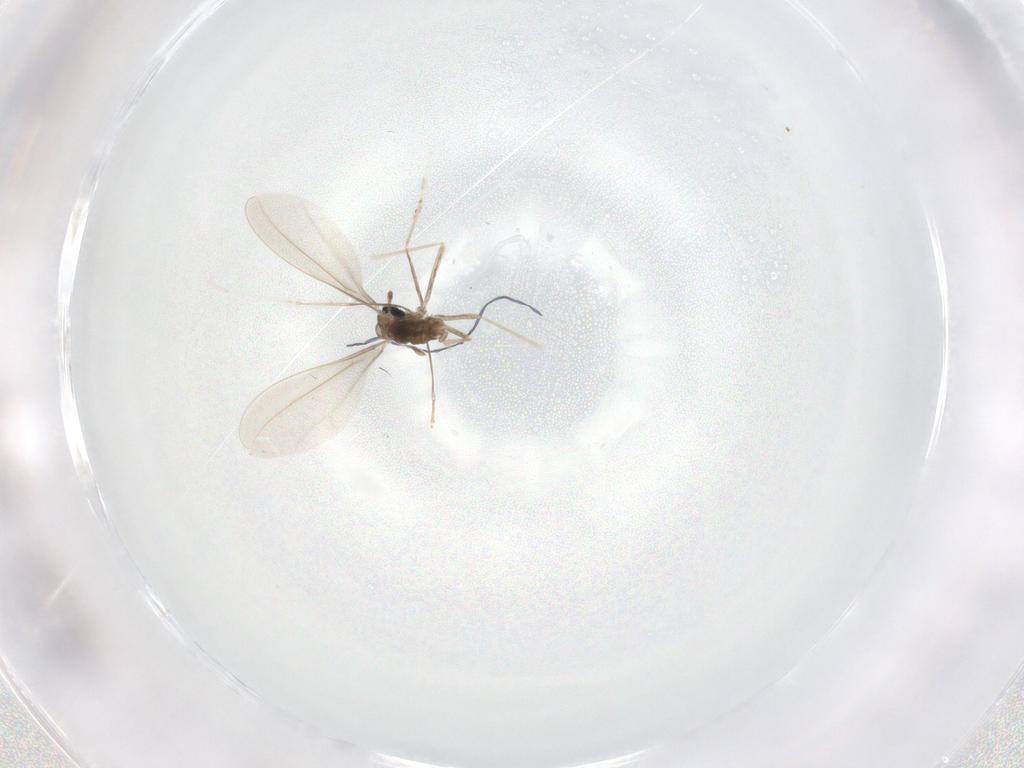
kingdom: Animalia
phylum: Arthropoda
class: Insecta
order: Diptera
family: Cecidomyiidae
